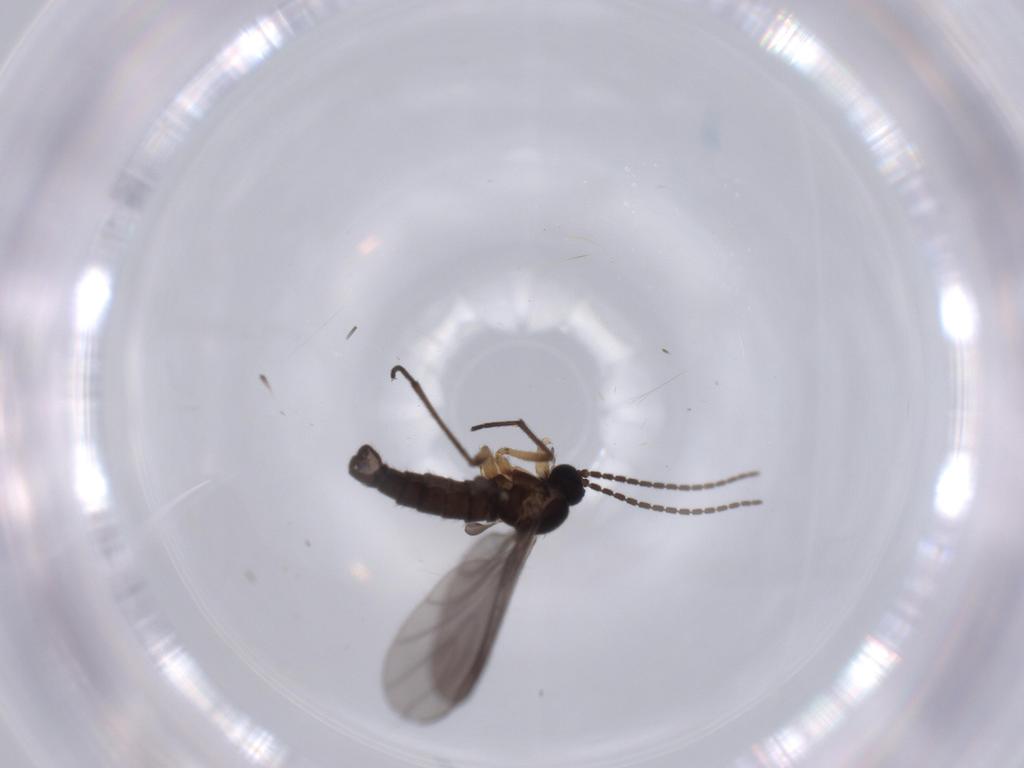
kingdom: Animalia
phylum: Arthropoda
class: Insecta
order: Diptera
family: Sciaridae
